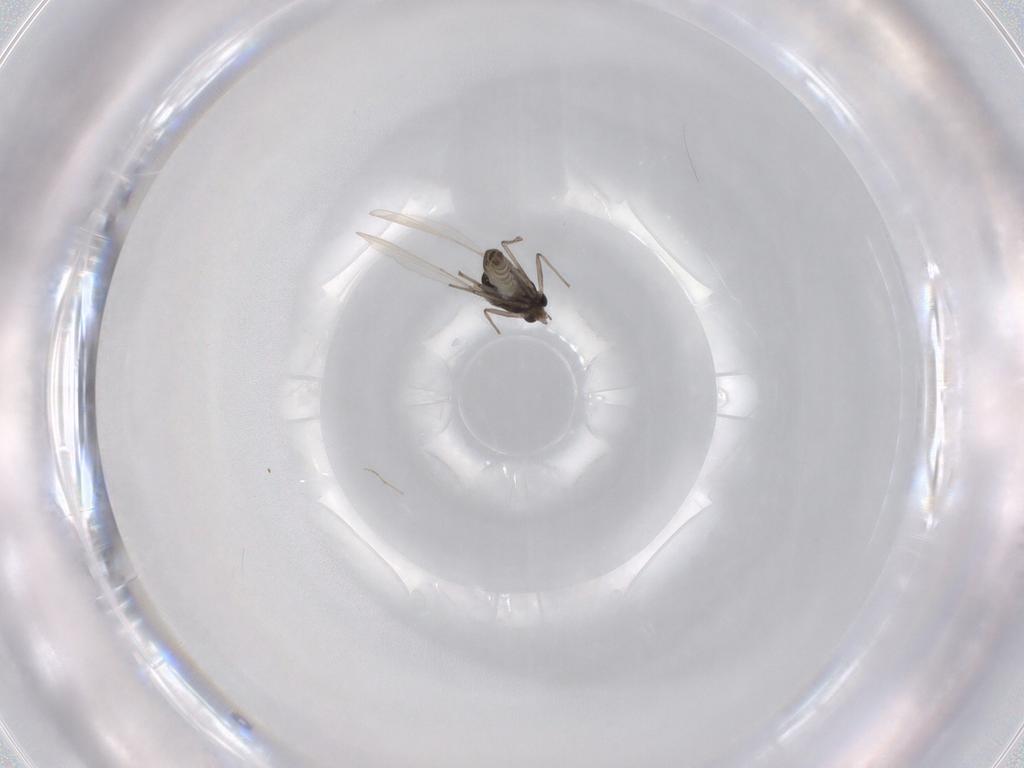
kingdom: Animalia
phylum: Arthropoda
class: Insecta
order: Diptera
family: Chironomidae
